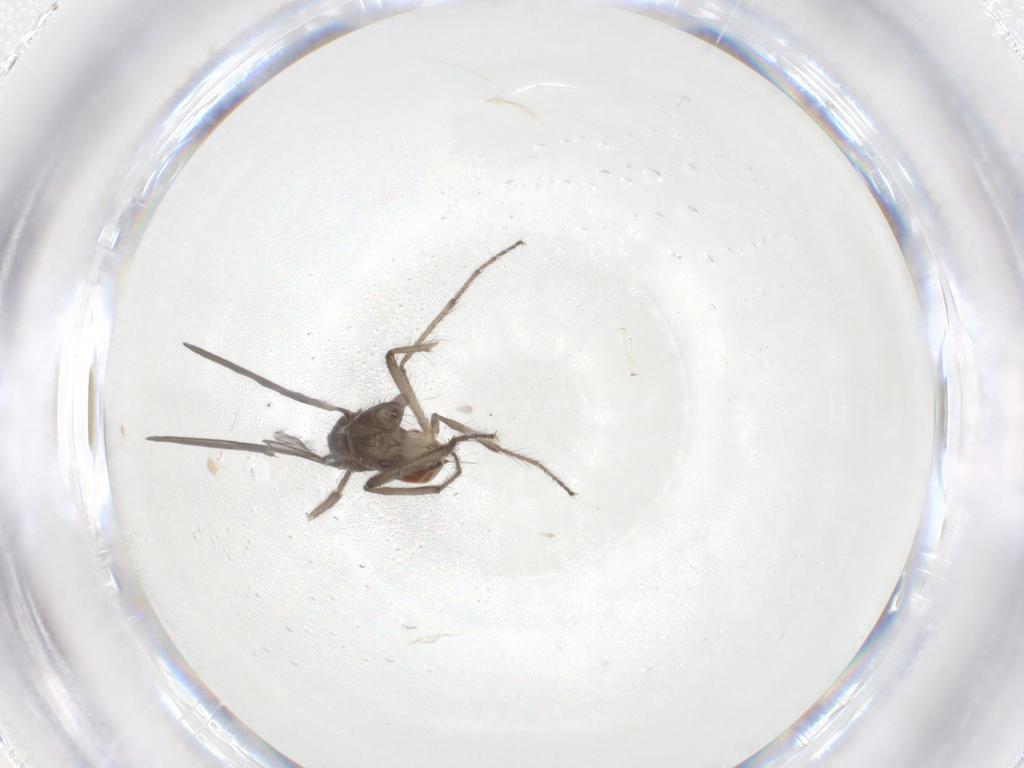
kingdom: Animalia
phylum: Arthropoda
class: Insecta
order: Diptera
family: Hybotidae
